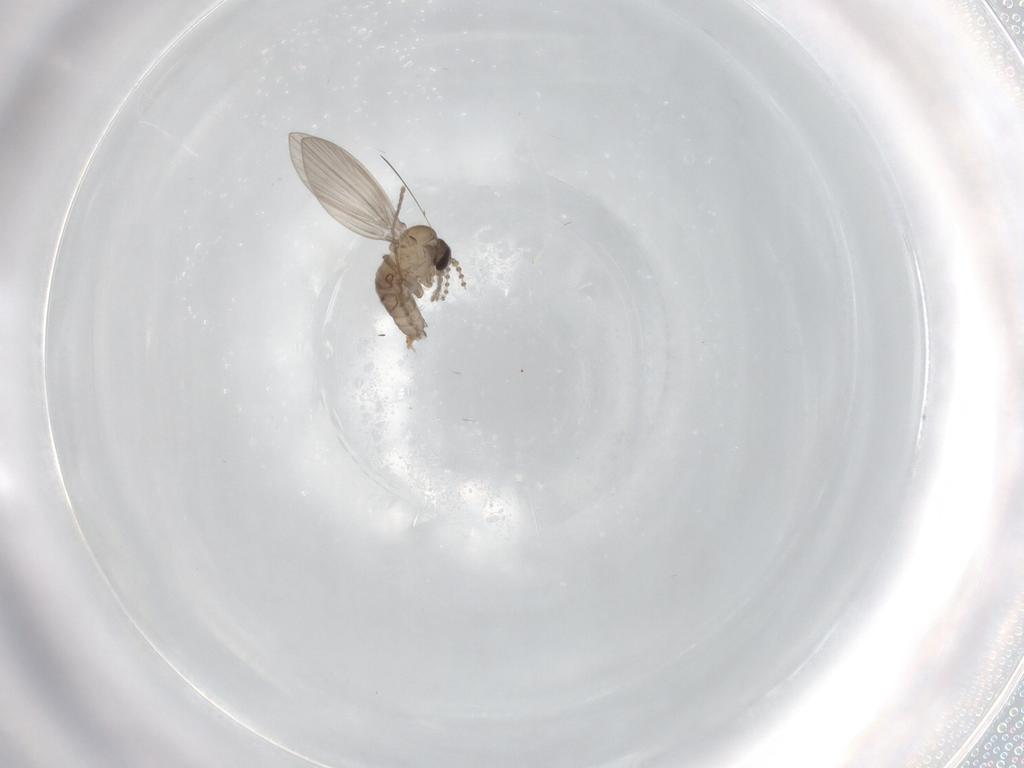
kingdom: Animalia
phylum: Arthropoda
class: Insecta
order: Diptera
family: Psychodidae
